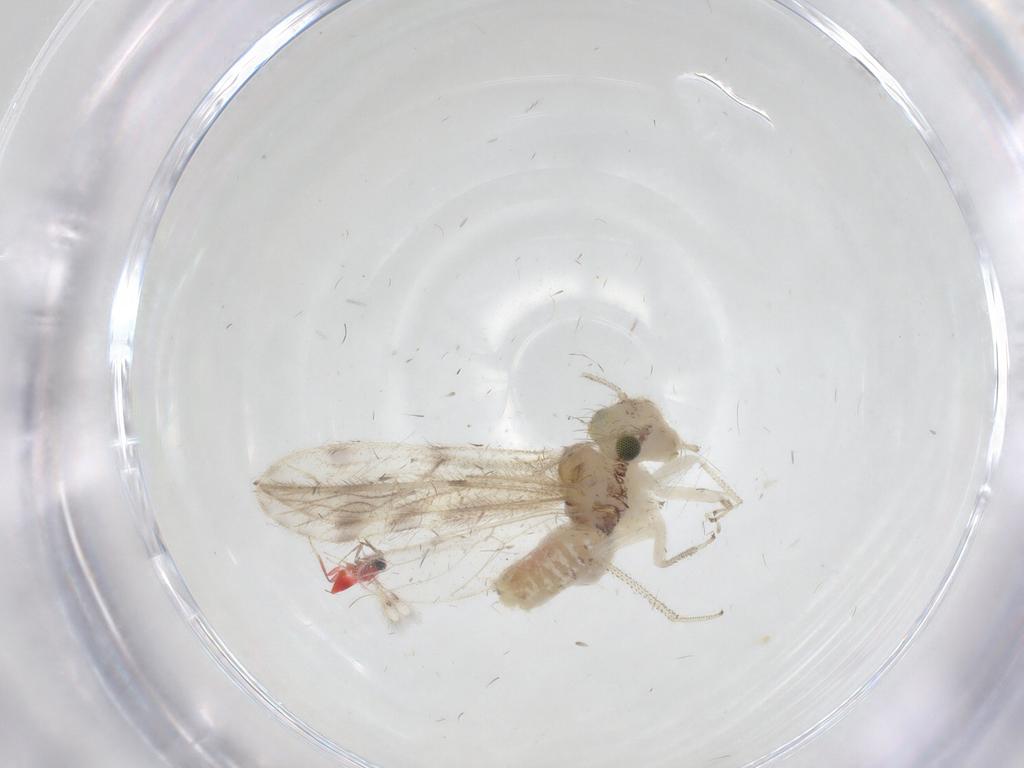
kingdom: Animalia
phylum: Arthropoda
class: Insecta
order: Hymenoptera
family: Trichogrammatidae
